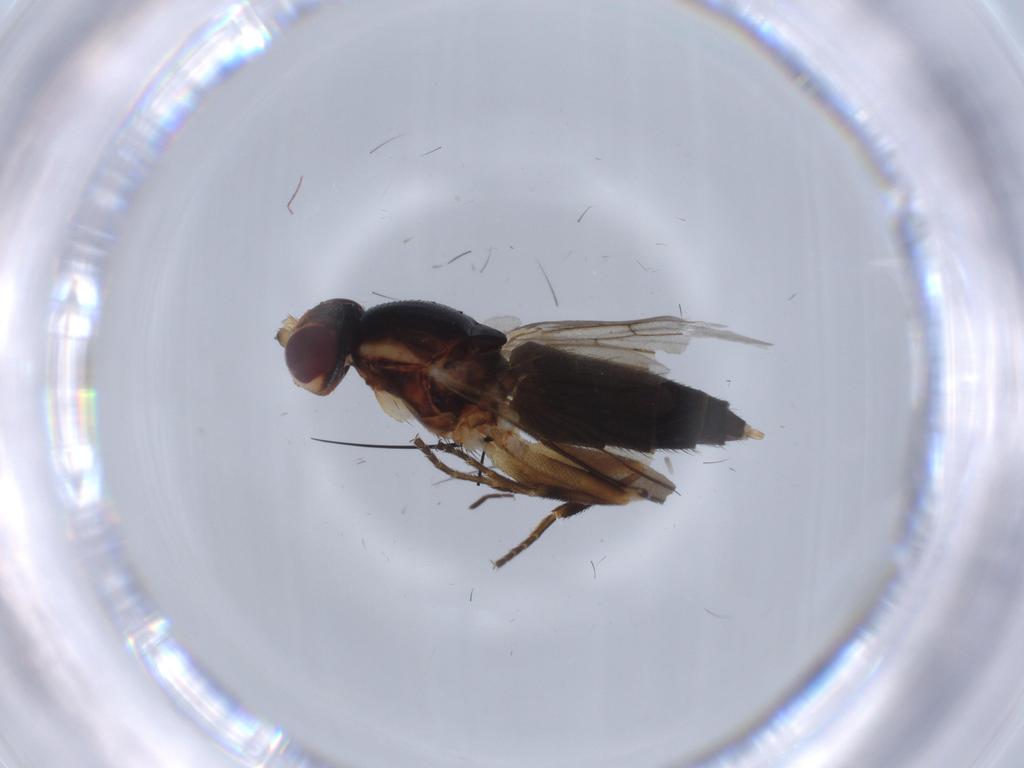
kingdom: Animalia
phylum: Arthropoda
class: Insecta
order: Diptera
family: Clusiidae
